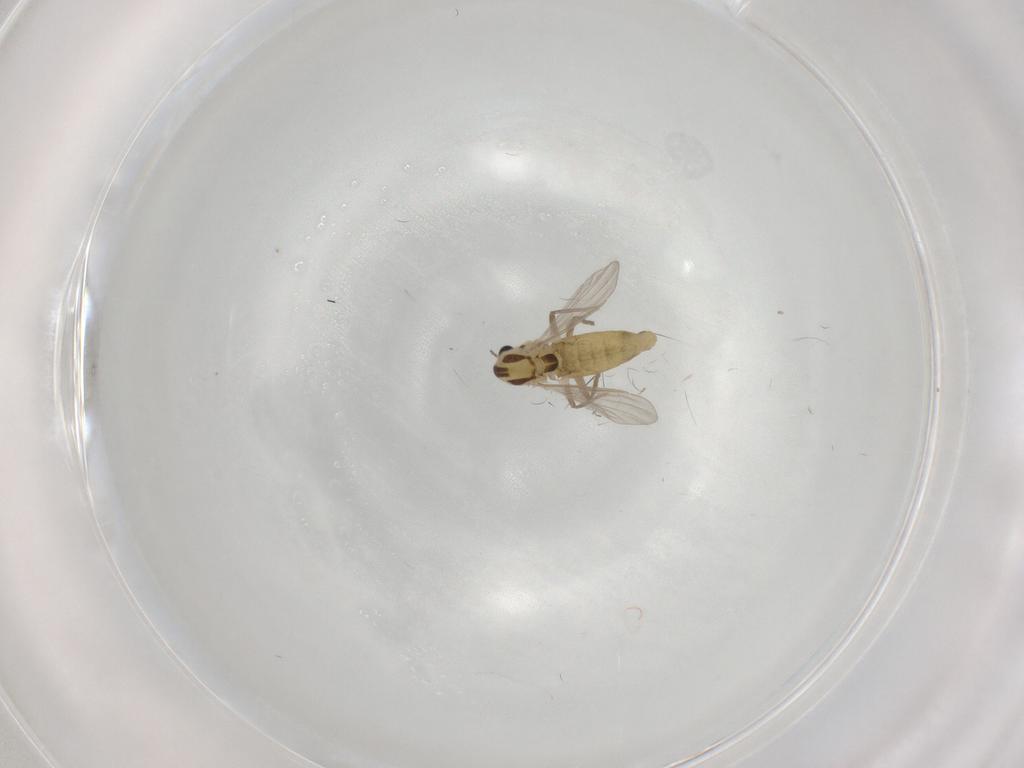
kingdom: Animalia
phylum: Arthropoda
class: Insecta
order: Diptera
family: Chironomidae
